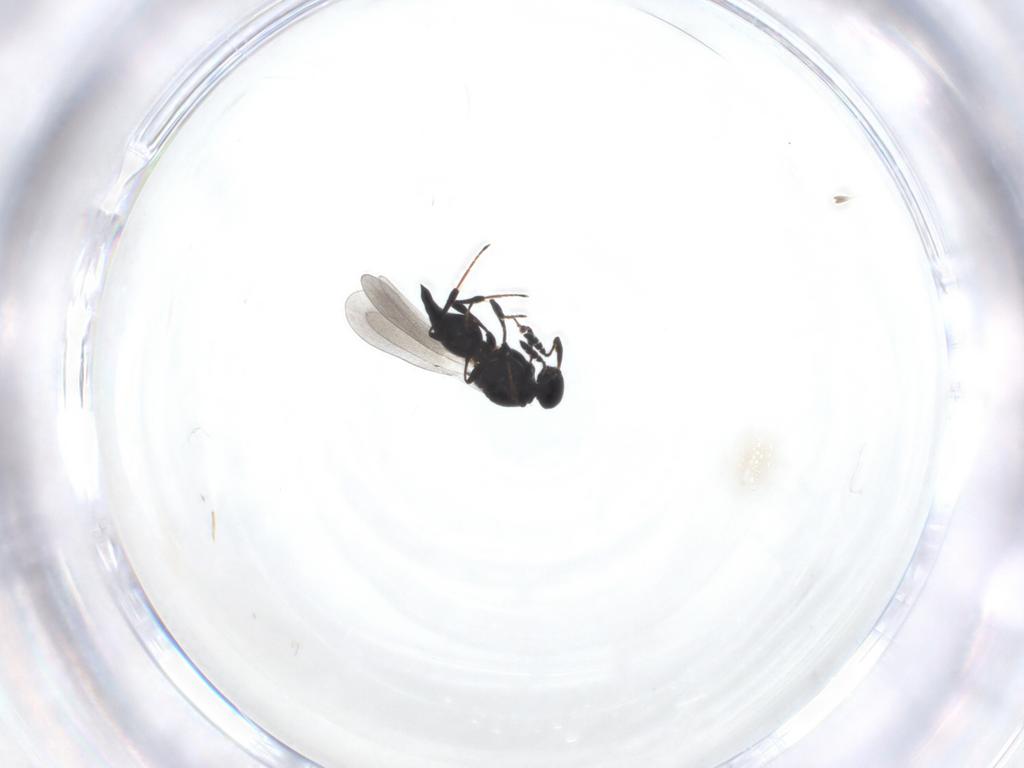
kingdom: Animalia
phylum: Arthropoda
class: Insecta
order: Hymenoptera
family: Platygastridae
